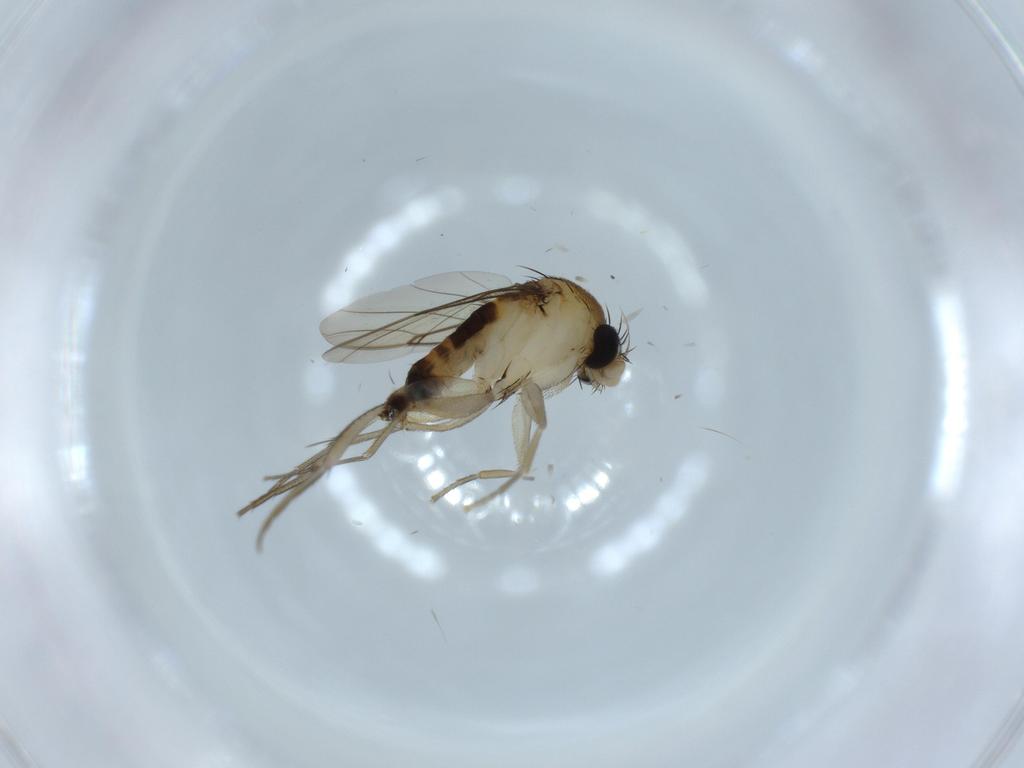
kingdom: Animalia
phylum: Arthropoda
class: Insecta
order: Diptera
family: Phoridae
